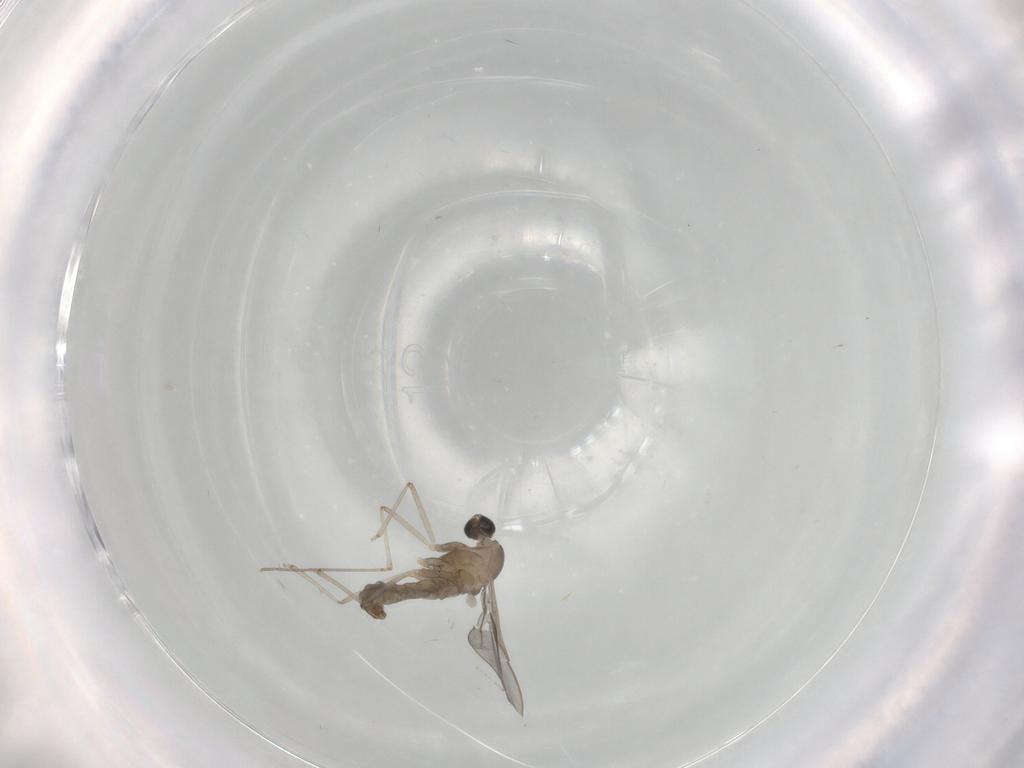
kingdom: Animalia
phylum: Arthropoda
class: Insecta
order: Diptera
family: Cecidomyiidae
